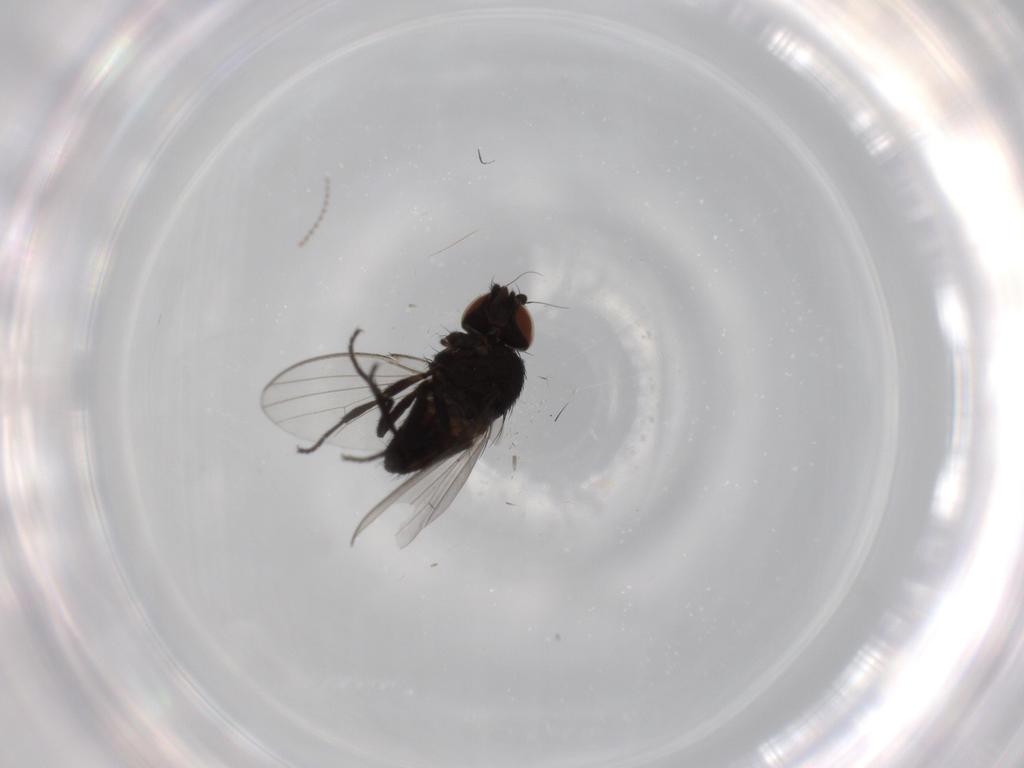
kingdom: Animalia
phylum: Arthropoda
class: Insecta
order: Diptera
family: Milichiidae
